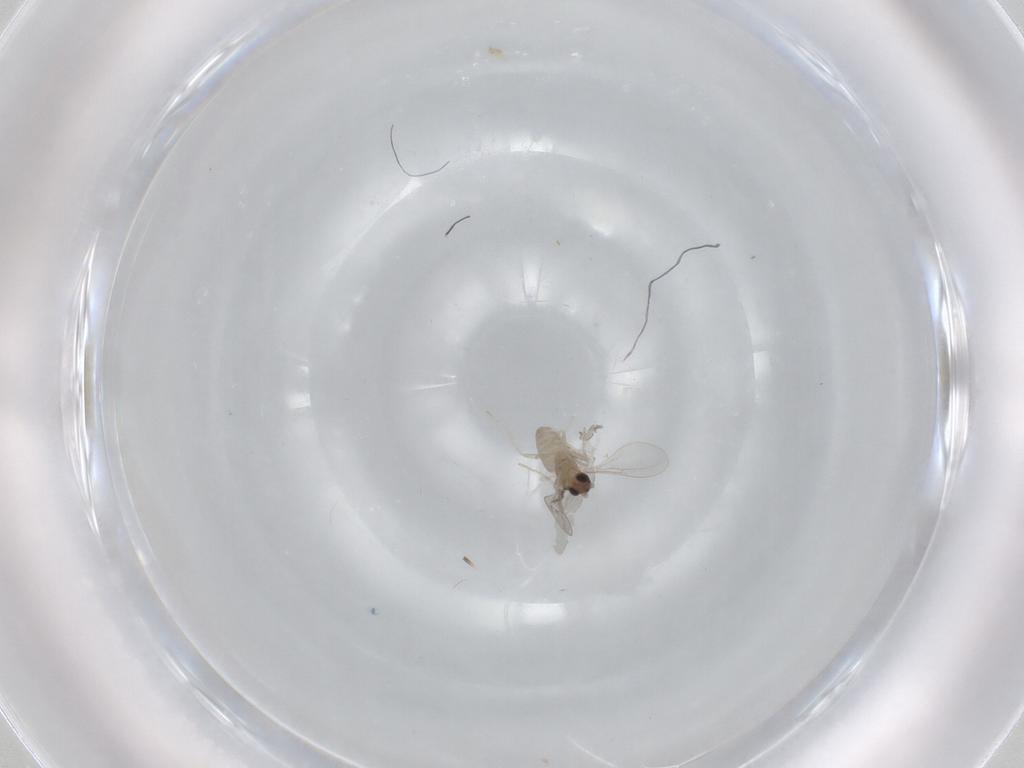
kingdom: Animalia
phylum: Arthropoda
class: Insecta
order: Diptera
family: Cecidomyiidae
